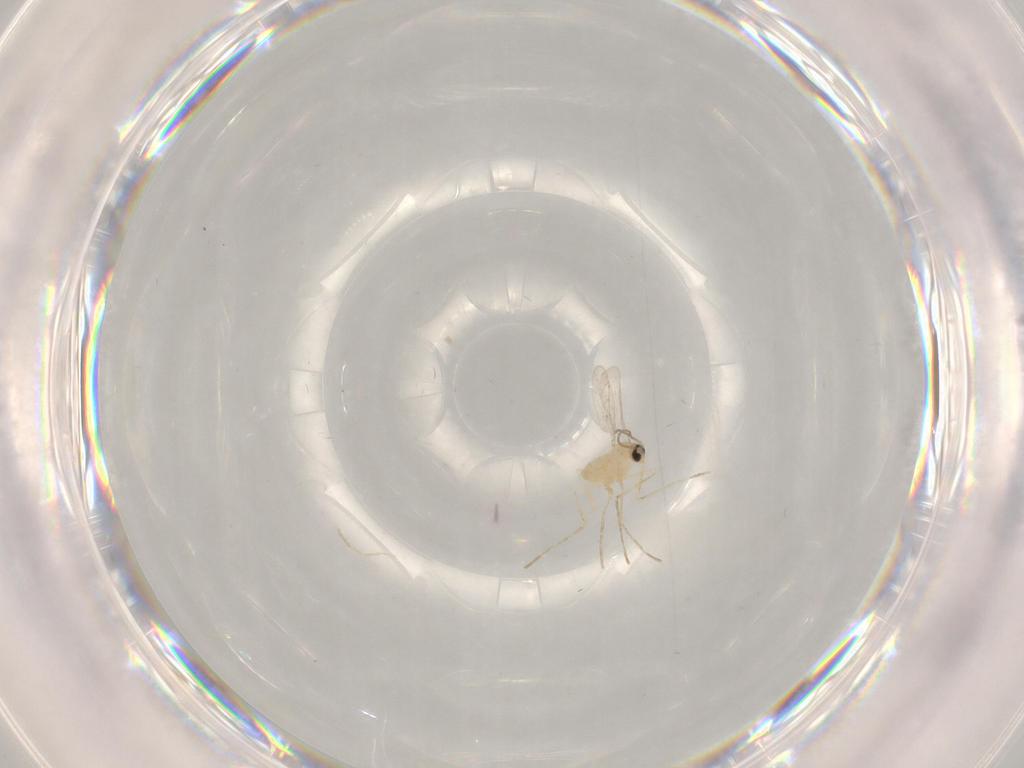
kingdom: Animalia
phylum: Arthropoda
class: Insecta
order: Diptera
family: Cecidomyiidae
